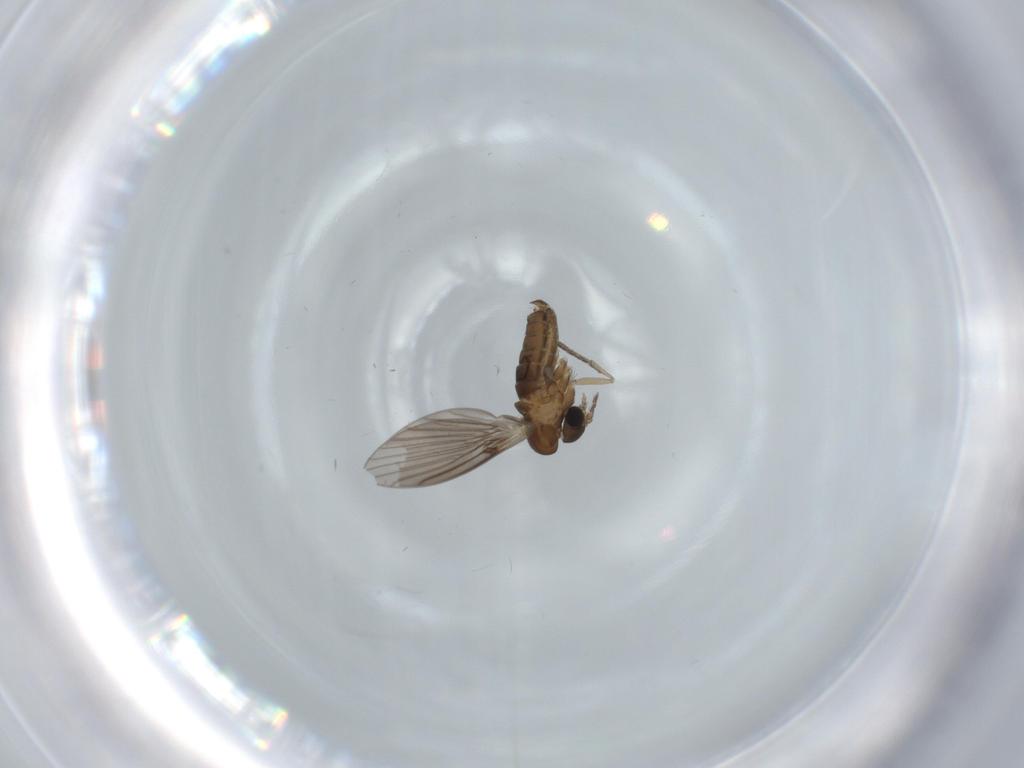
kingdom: Animalia
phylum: Arthropoda
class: Insecta
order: Diptera
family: Psychodidae
